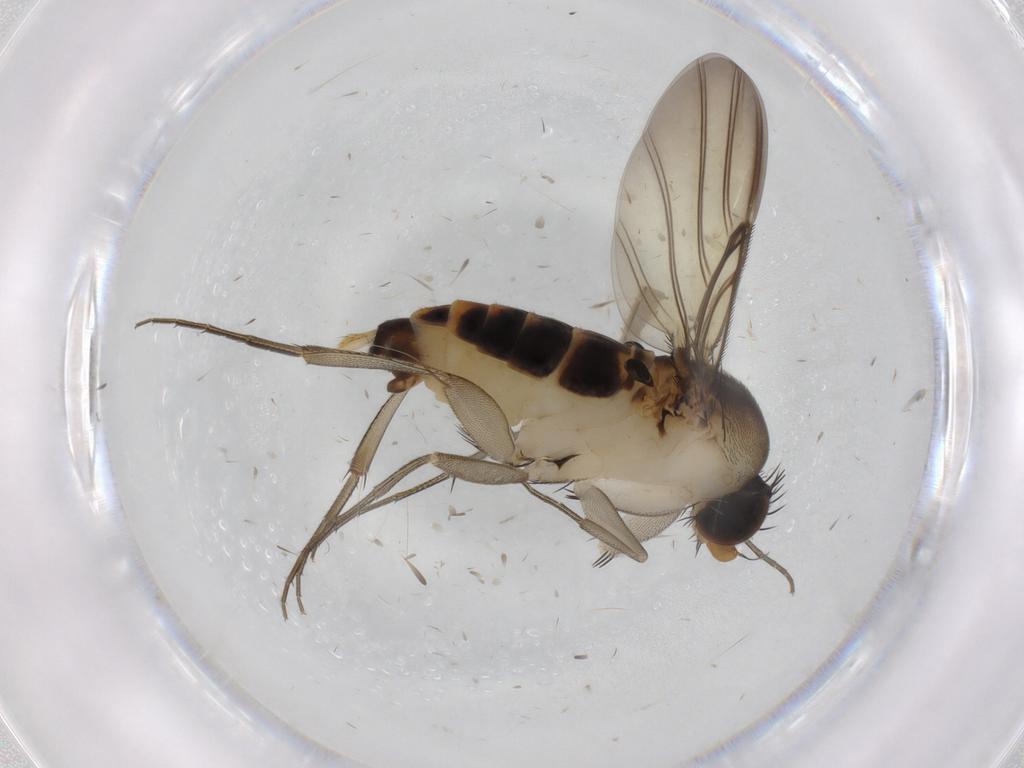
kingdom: Animalia
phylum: Arthropoda
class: Insecta
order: Diptera
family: Phoridae
